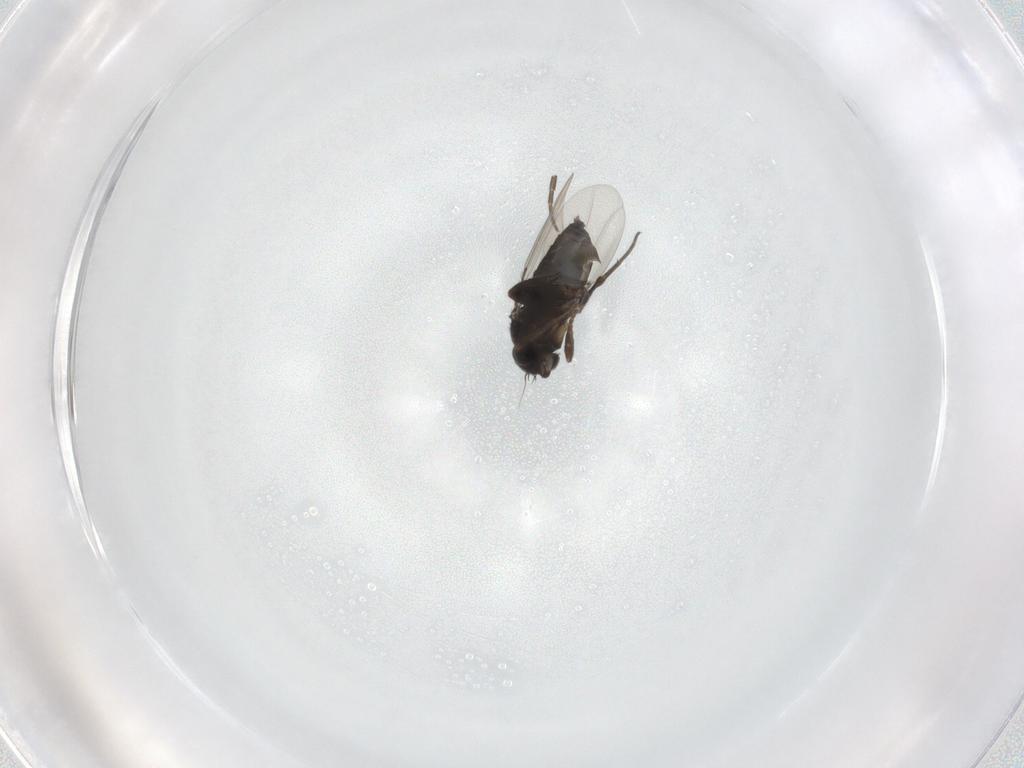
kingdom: Animalia
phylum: Arthropoda
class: Insecta
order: Diptera
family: Phoridae
